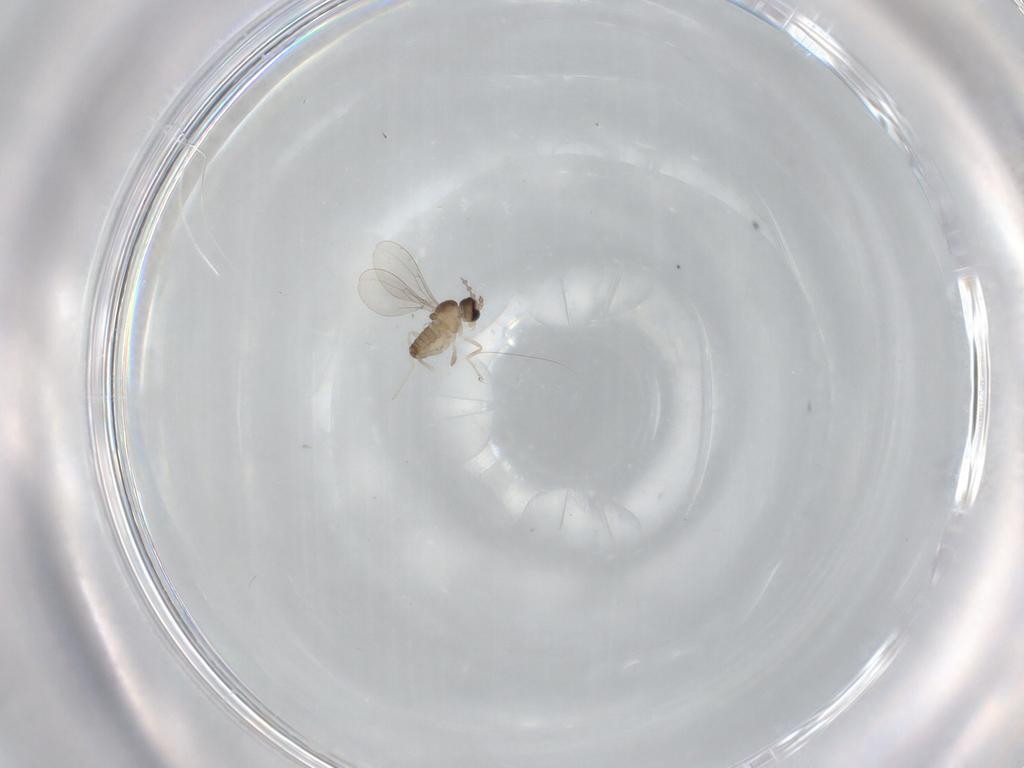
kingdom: Animalia
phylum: Arthropoda
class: Insecta
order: Diptera
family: Cecidomyiidae
